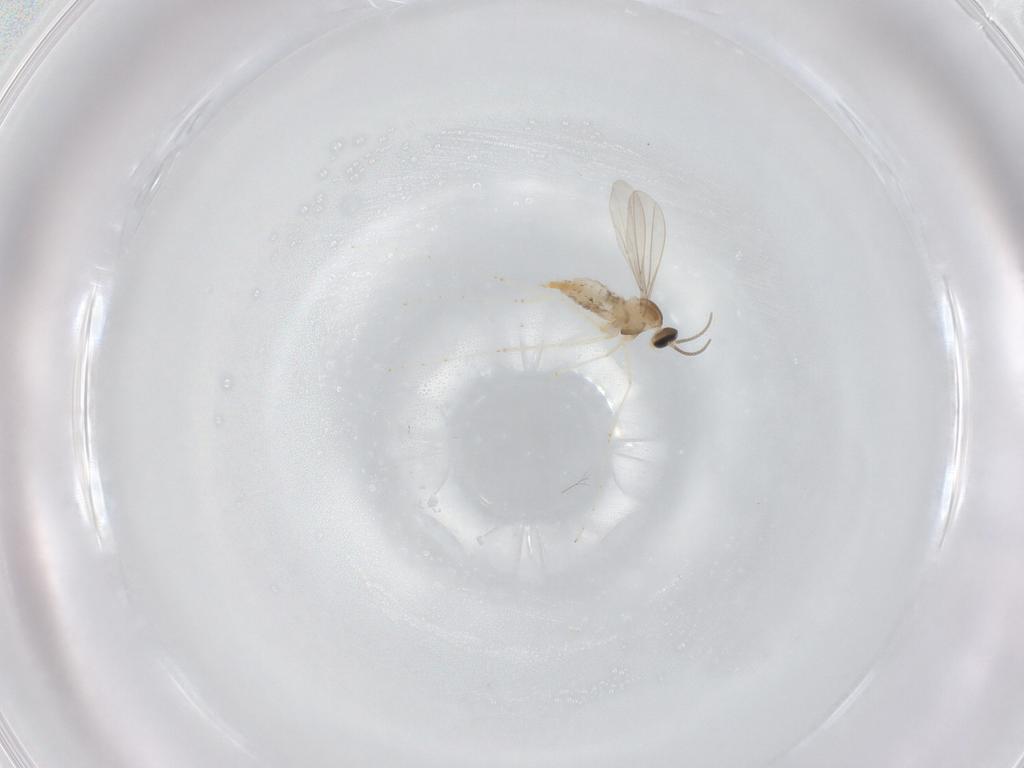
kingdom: Animalia
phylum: Arthropoda
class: Insecta
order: Diptera
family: Cecidomyiidae
